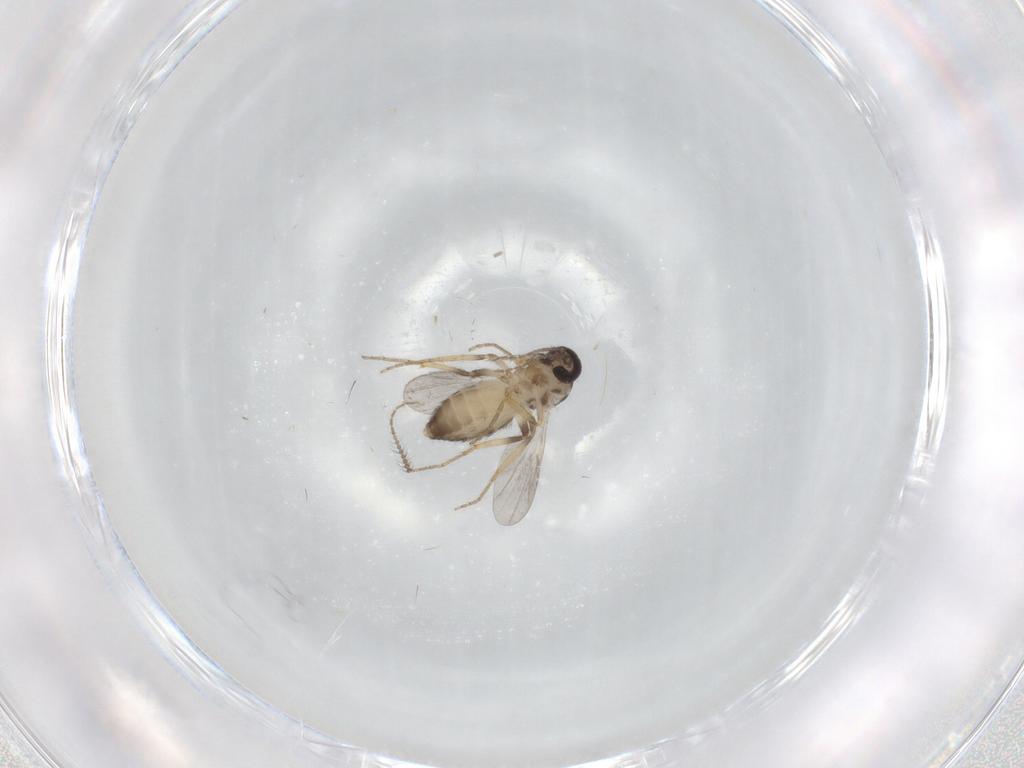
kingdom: Animalia
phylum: Arthropoda
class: Insecta
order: Diptera
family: Ceratopogonidae
